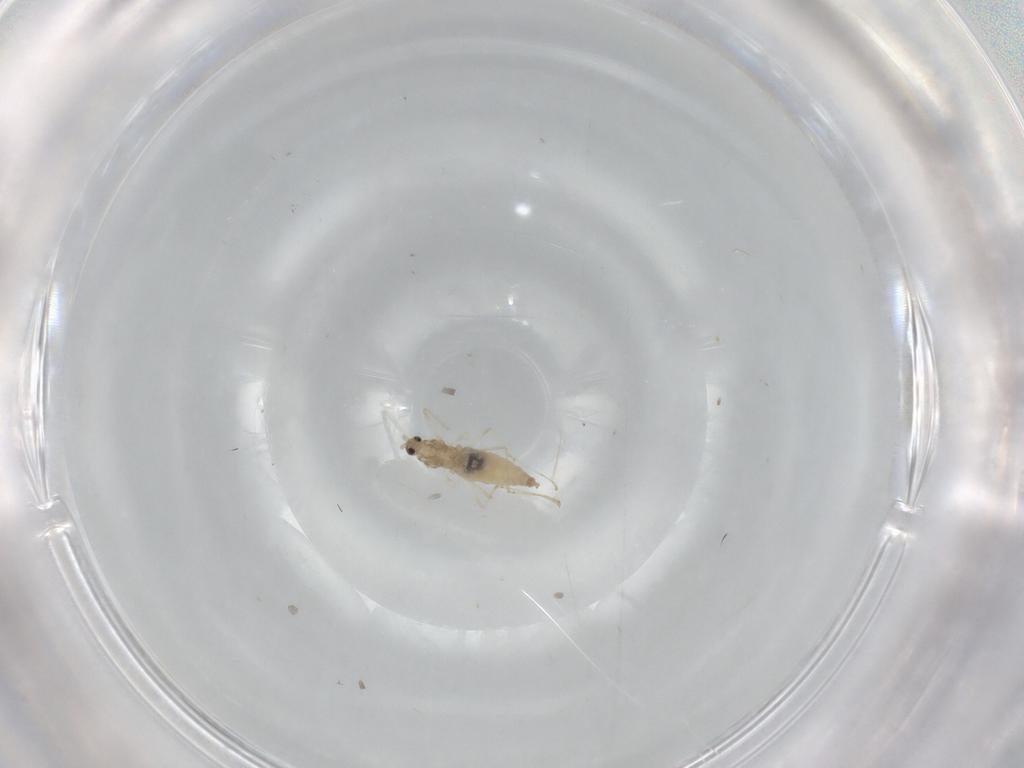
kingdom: Animalia
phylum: Arthropoda
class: Insecta
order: Diptera
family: Cecidomyiidae
